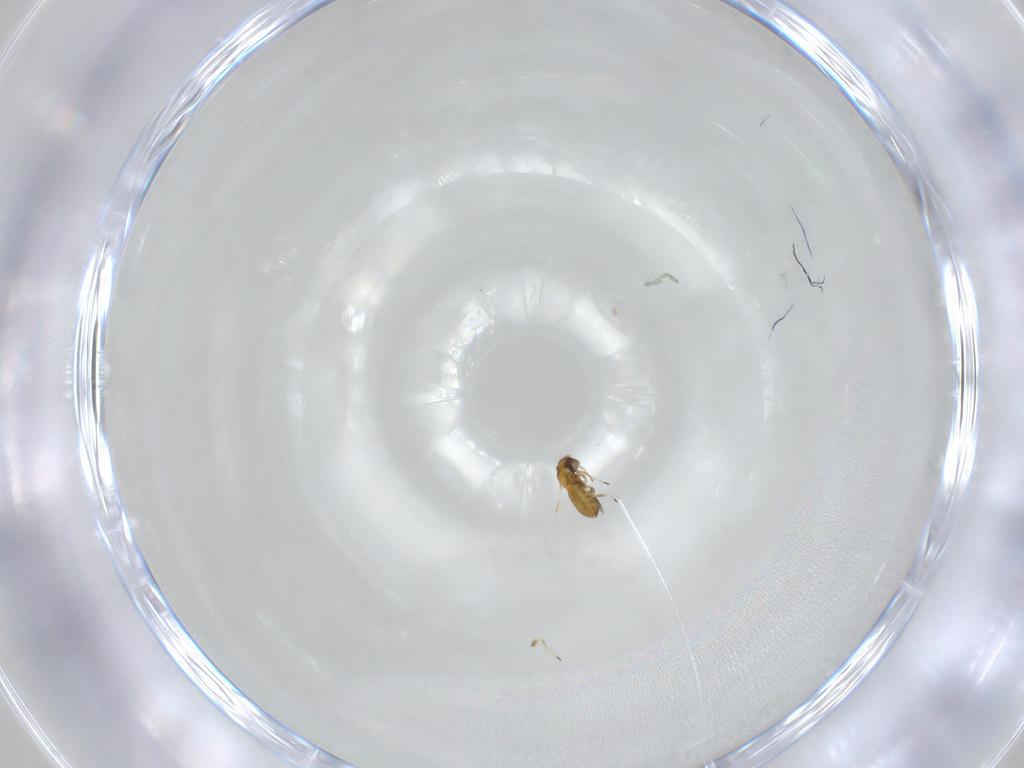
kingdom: Animalia
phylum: Arthropoda
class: Insecta
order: Hymenoptera
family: Trichogrammatidae
